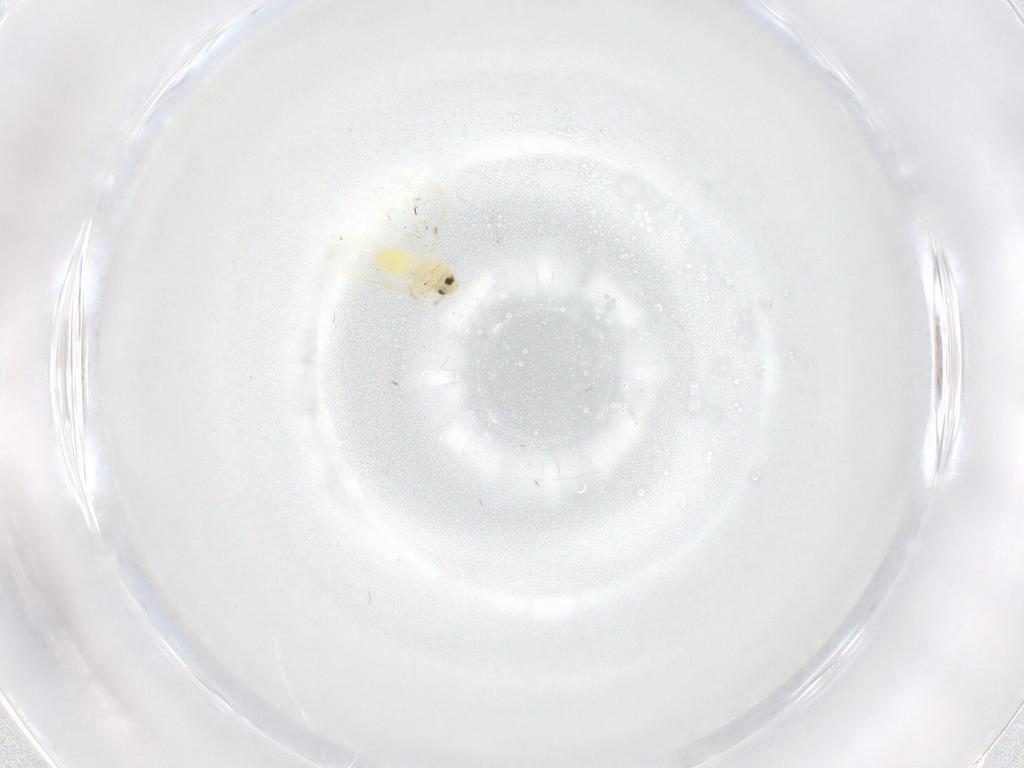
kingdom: Animalia
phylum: Arthropoda
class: Insecta
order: Hemiptera
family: Aleyrodidae
